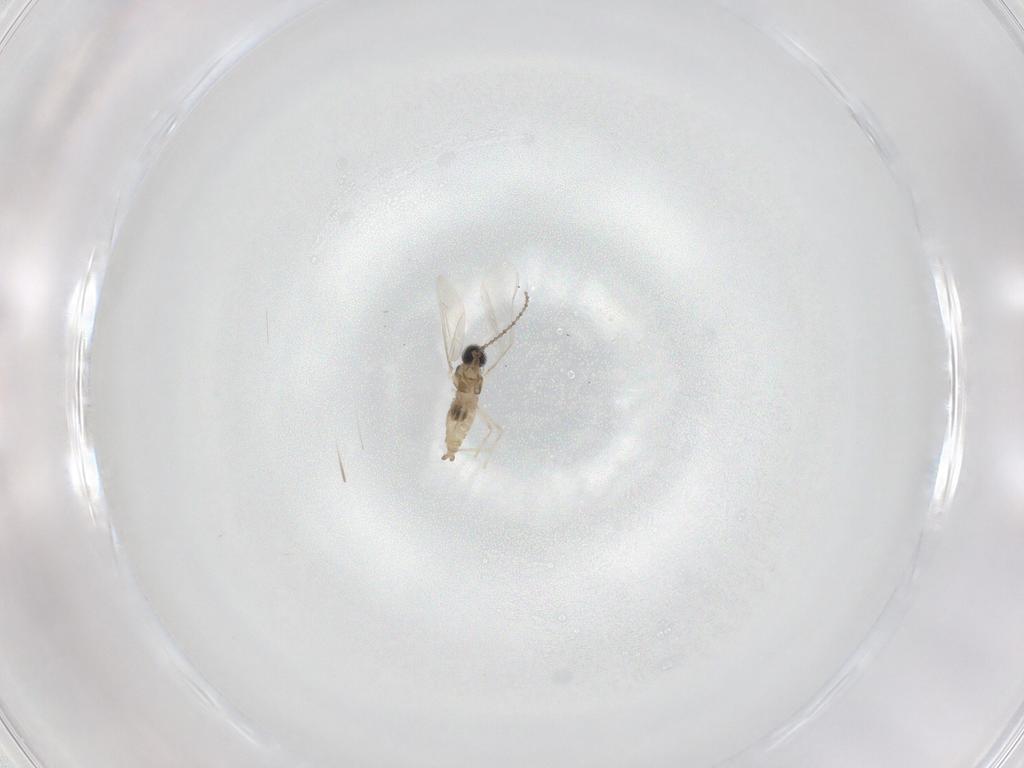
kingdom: Animalia
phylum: Arthropoda
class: Insecta
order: Diptera
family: Cecidomyiidae
